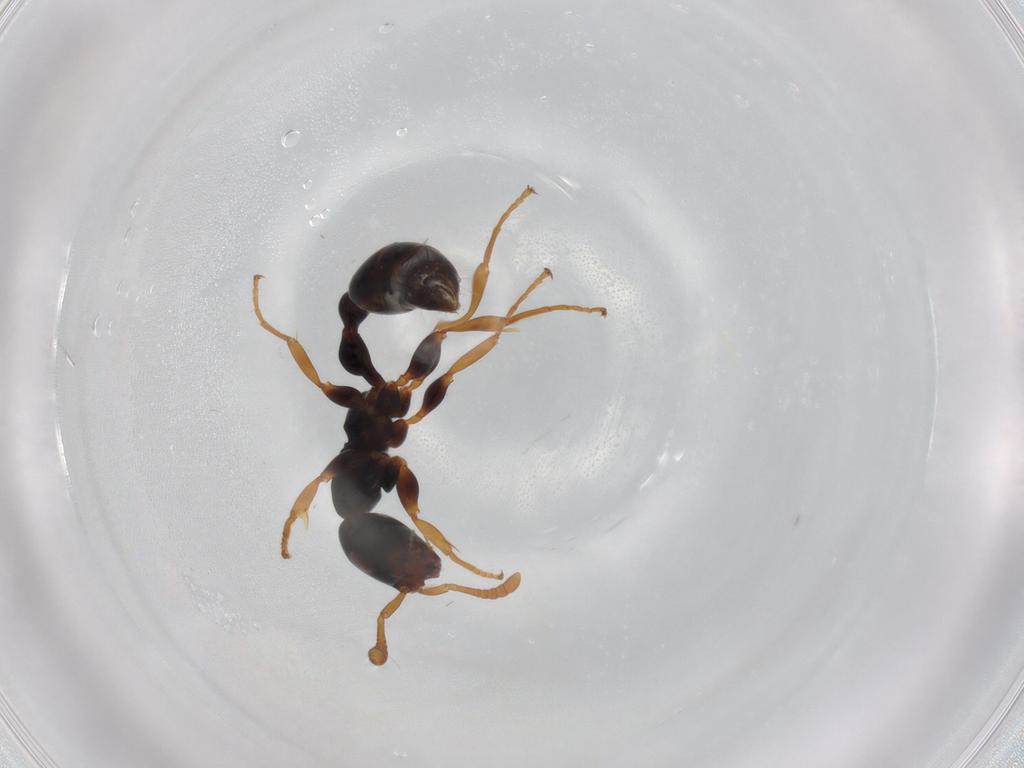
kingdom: Animalia
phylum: Arthropoda
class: Insecta
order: Hymenoptera
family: Formicidae
